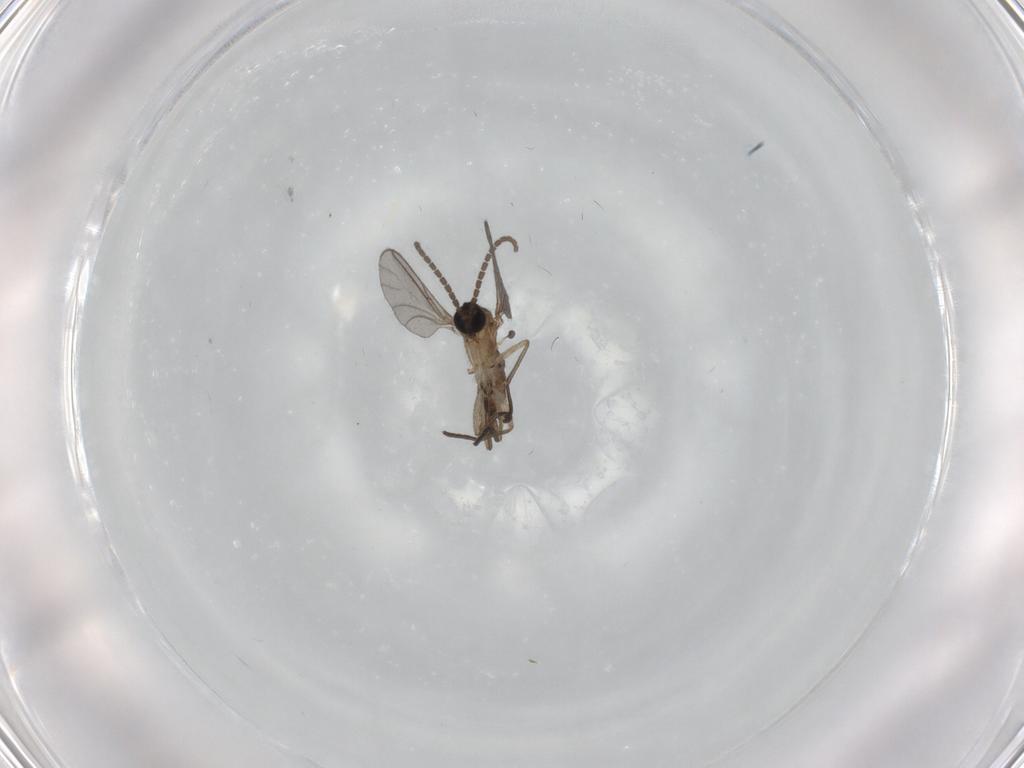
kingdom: Animalia
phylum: Arthropoda
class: Insecta
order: Diptera
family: Sciaridae
